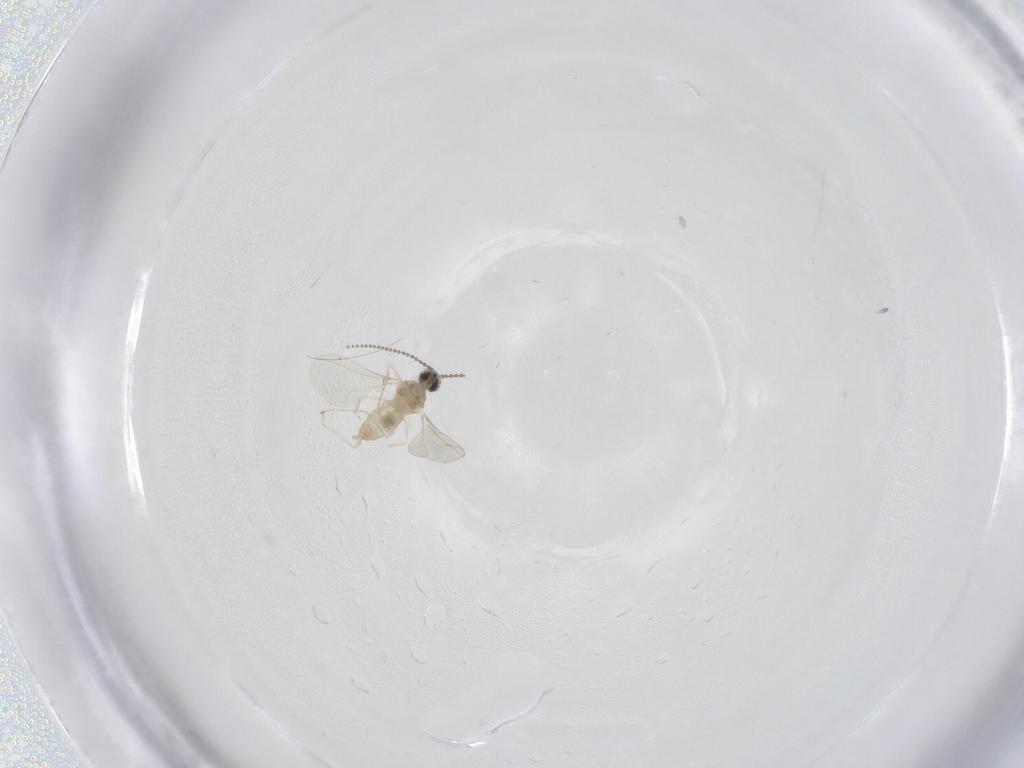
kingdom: Animalia
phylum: Arthropoda
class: Insecta
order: Diptera
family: Cecidomyiidae
